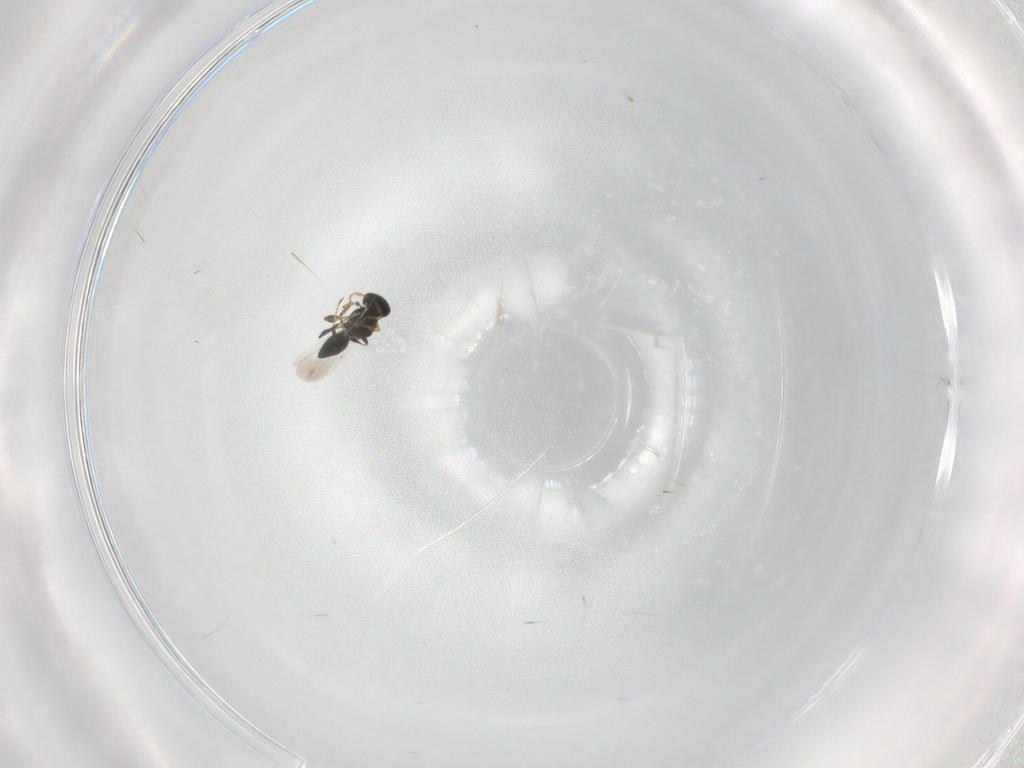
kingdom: Animalia
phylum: Arthropoda
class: Insecta
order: Hymenoptera
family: Platygastridae
